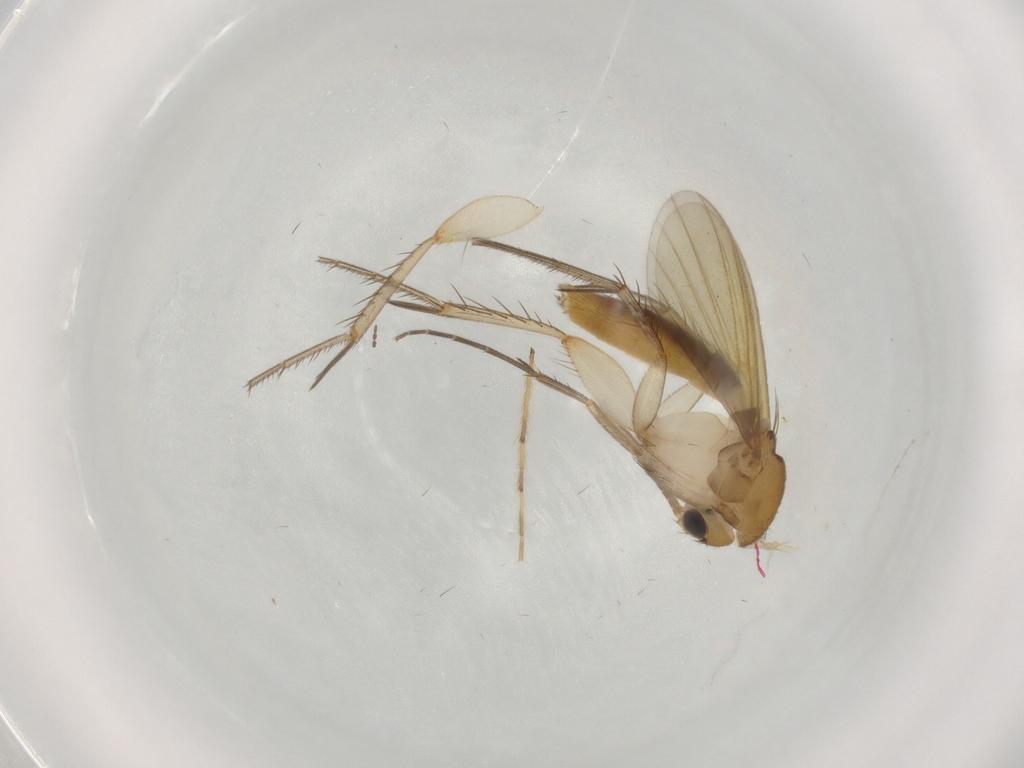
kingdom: Animalia
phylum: Arthropoda
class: Insecta
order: Diptera
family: Mycetophilidae
